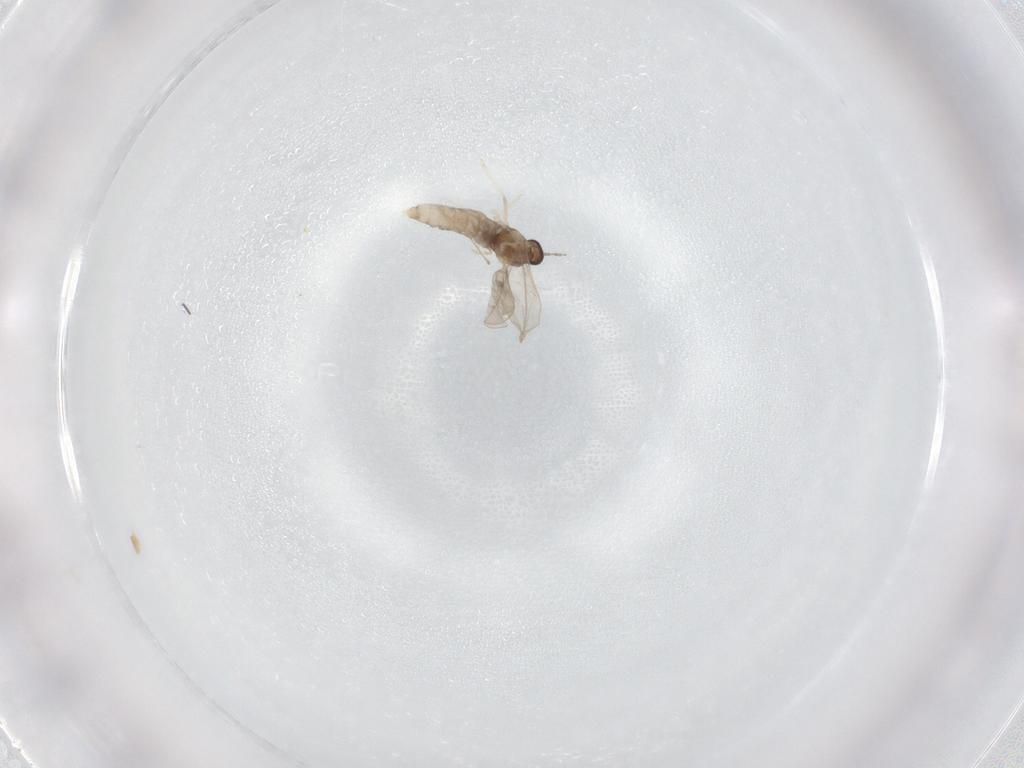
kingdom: Animalia
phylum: Arthropoda
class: Insecta
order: Diptera
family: Cecidomyiidae
